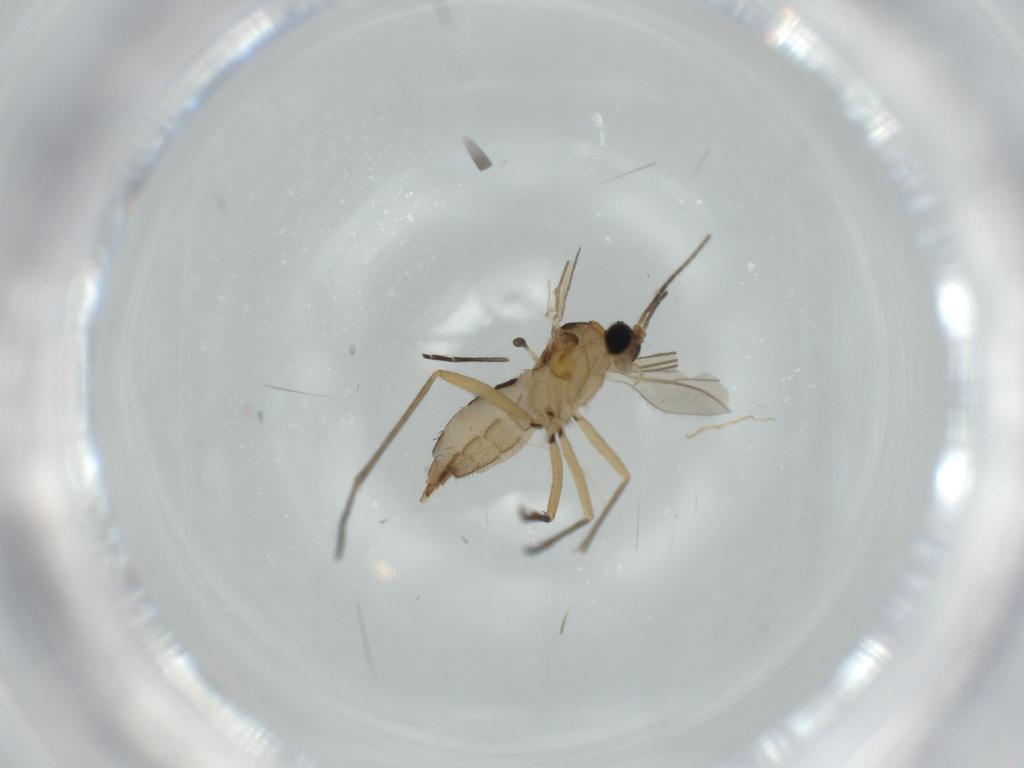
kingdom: Animalia
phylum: Arthropoda
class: Insecta
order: Diptera
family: Sciaridae
